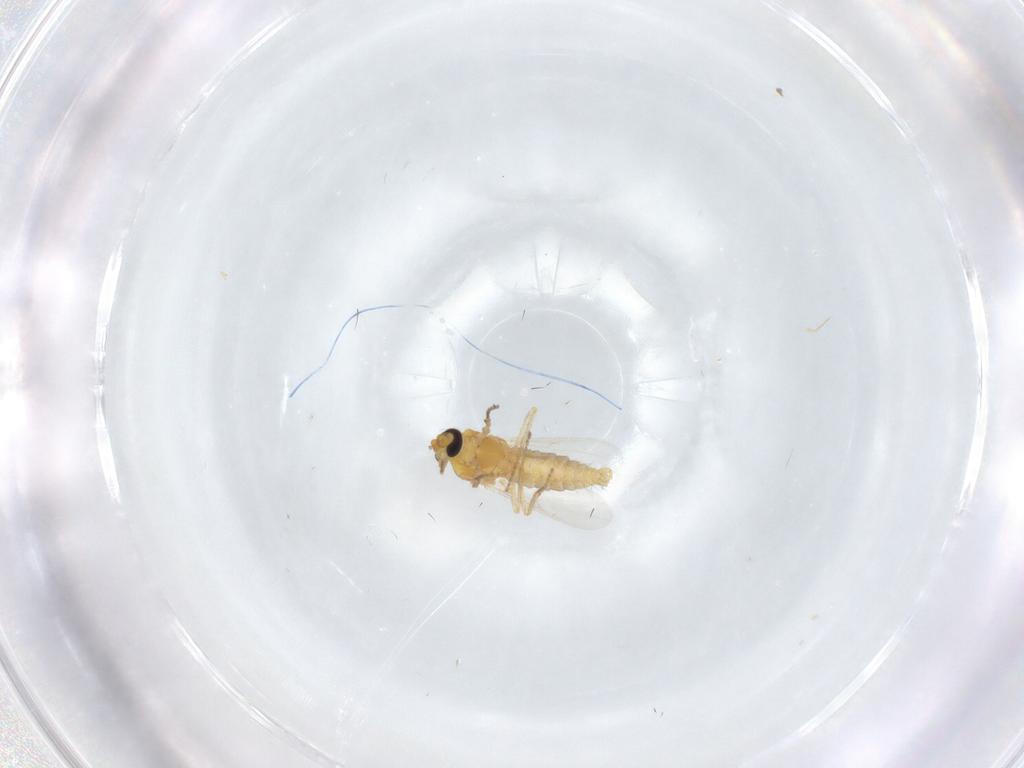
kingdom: Animalia
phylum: Arthropoda
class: Insecta
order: Diptera
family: Ceratopogonidae
